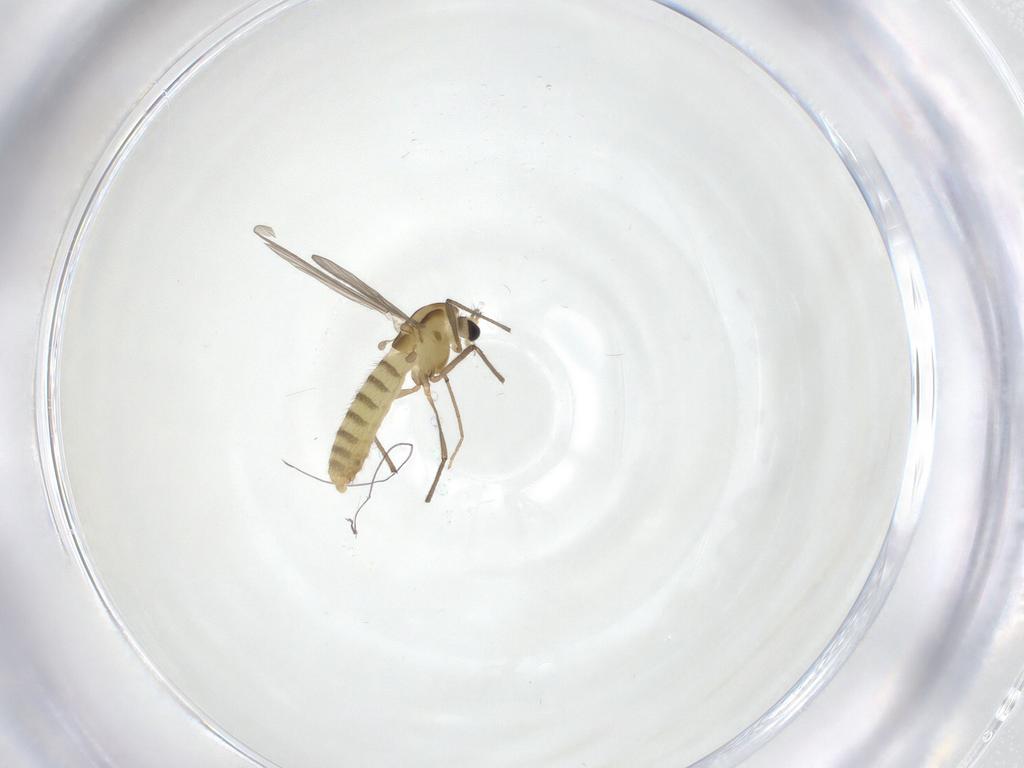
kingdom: Animalia
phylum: Arthropoda
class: Insecta
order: Diptera
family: Chironomidae
